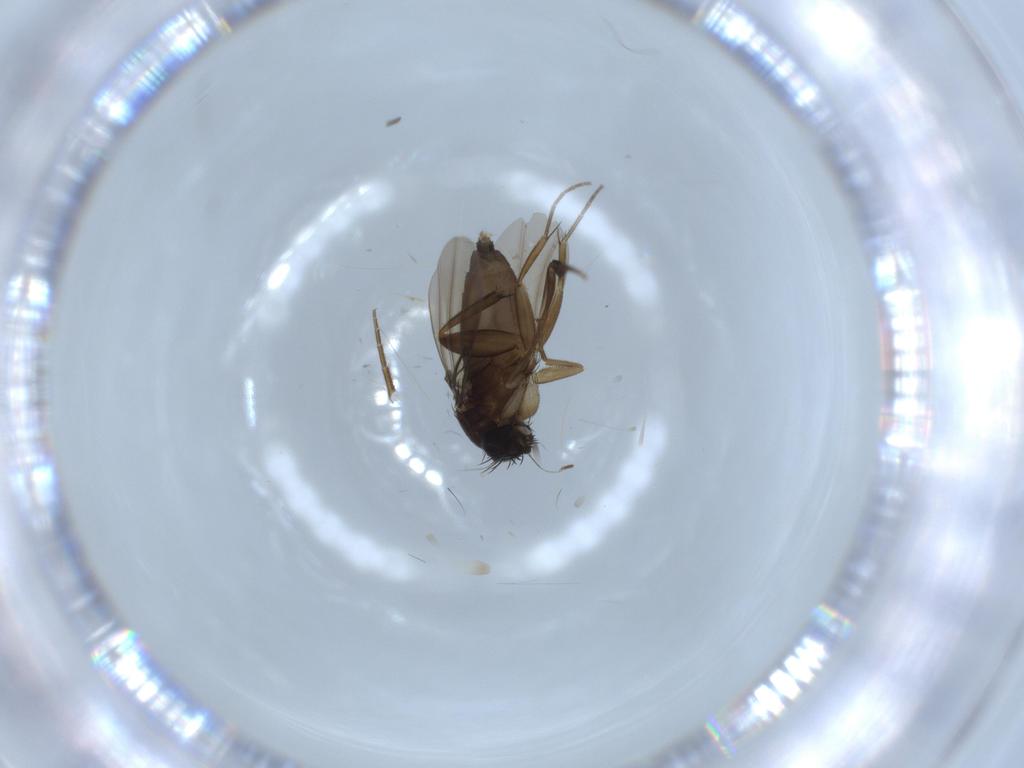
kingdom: Animalia
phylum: Arthropoda
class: Insecta
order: Diptera
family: Phoridae
